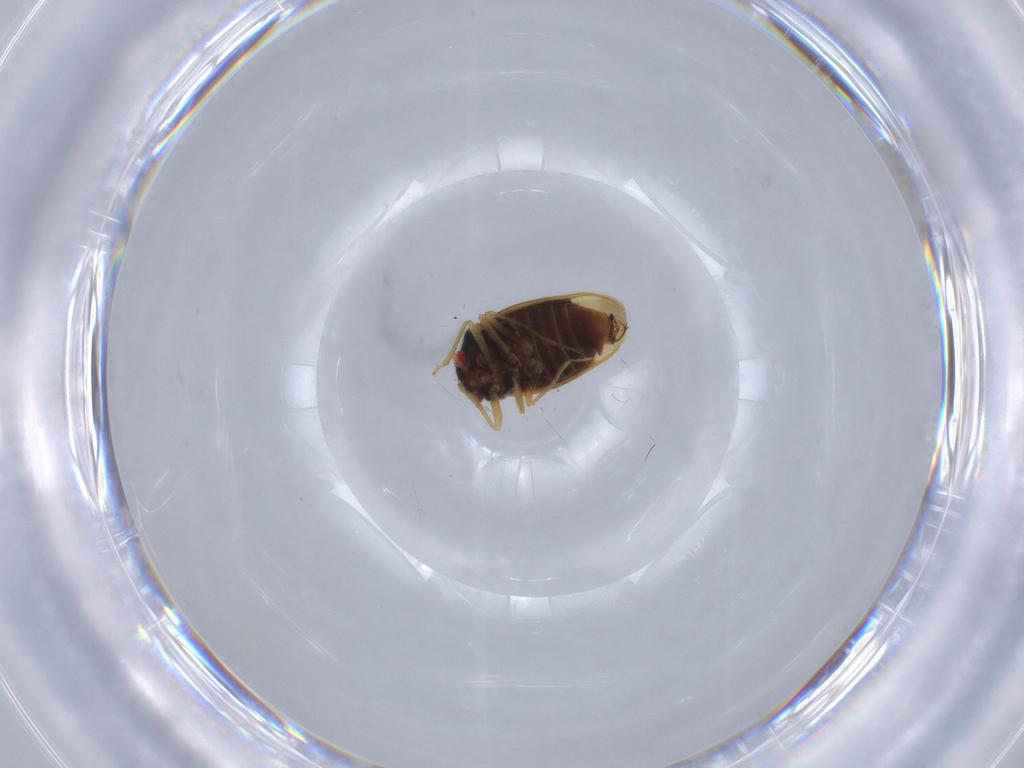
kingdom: Animalia
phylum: Arthropoda
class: Insecta
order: Hemiptera
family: Schizopteridae
